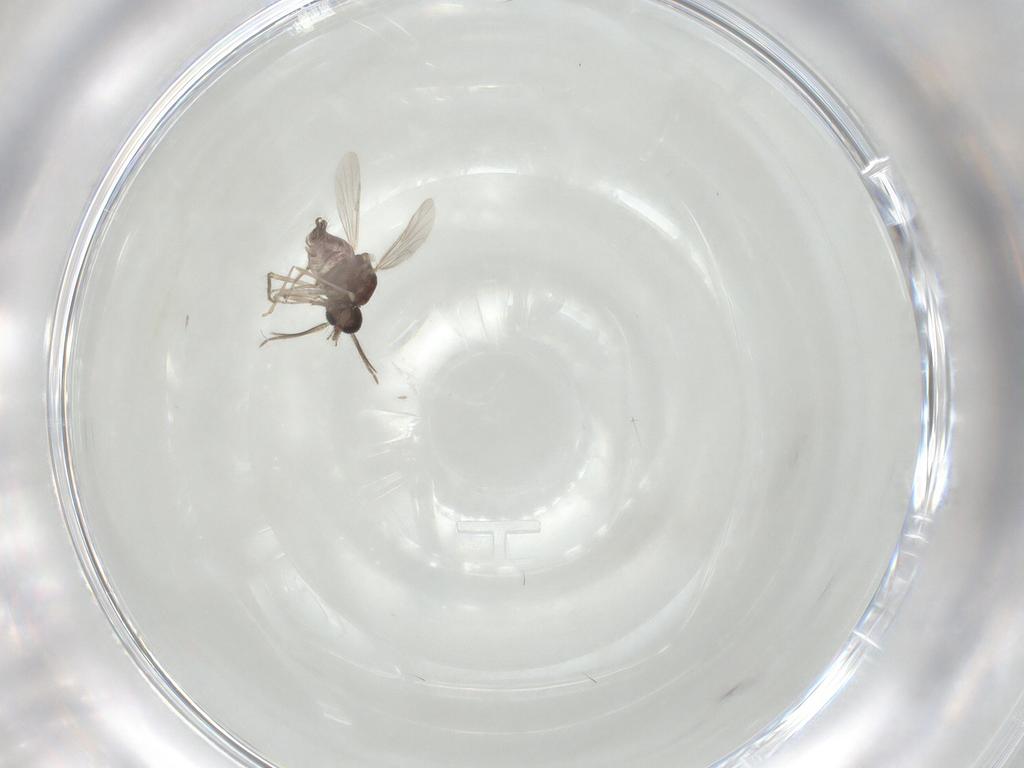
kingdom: Animalia
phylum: Arthropoda
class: Insecta
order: Diptera
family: Ceratopogonidae
